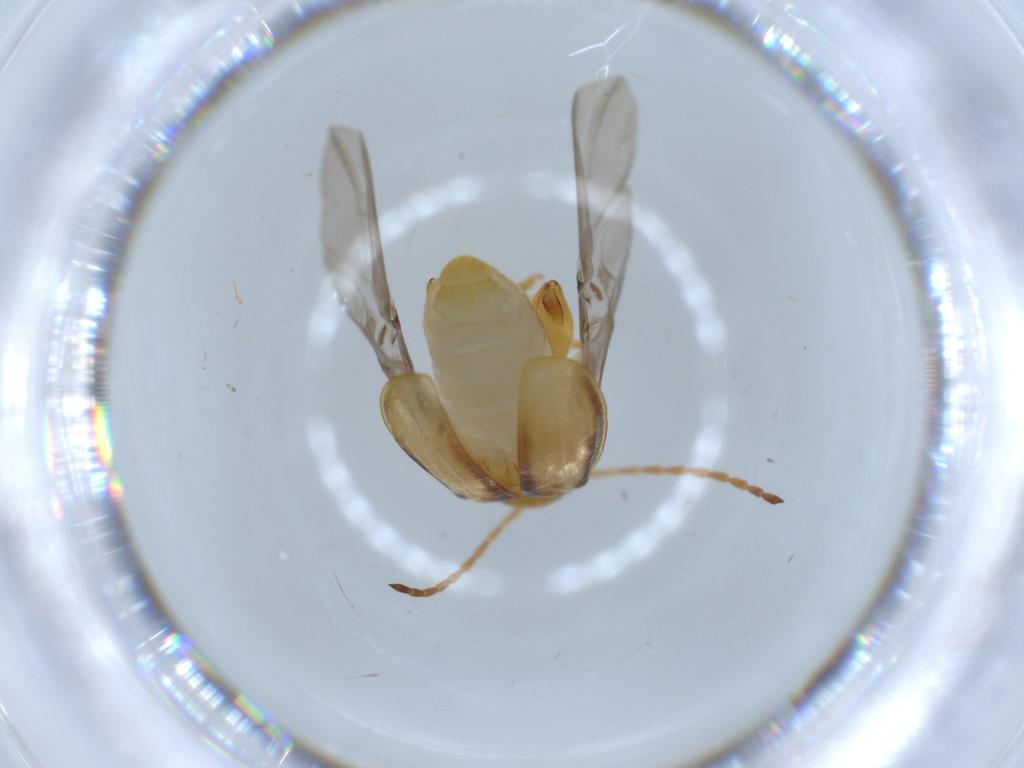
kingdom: Animalia
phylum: Arthropoda
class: Insecta
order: Coleoptera
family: Chrysomelidae
